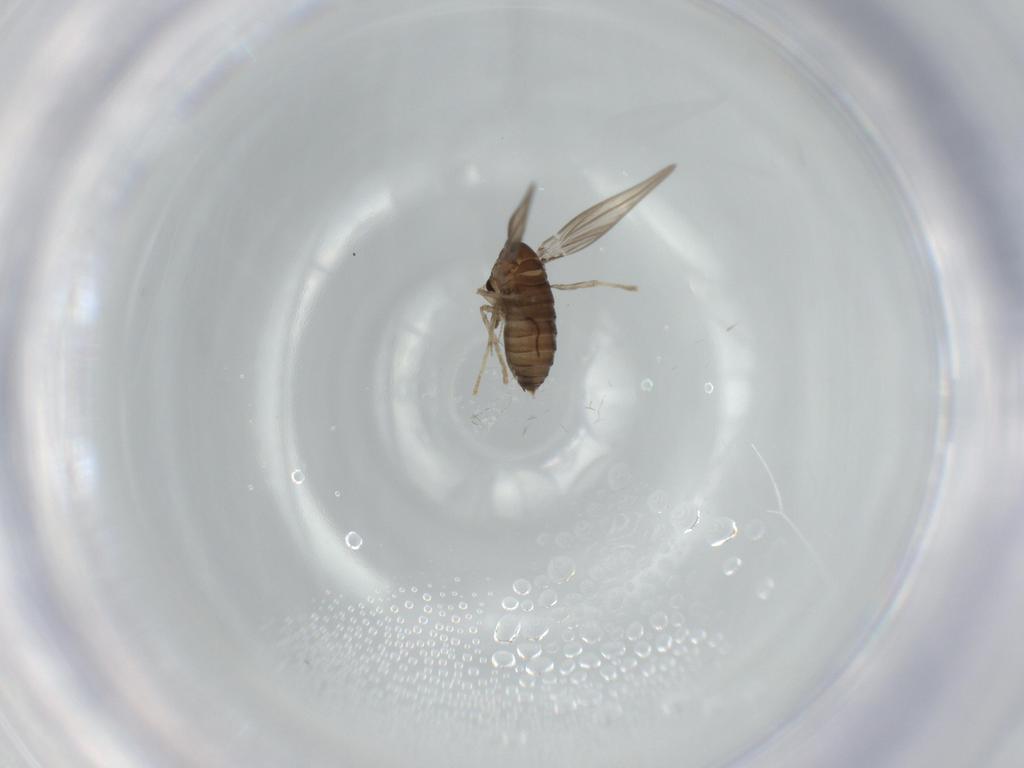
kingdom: Animalia
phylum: Arthropoda
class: Insecta
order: Diptera
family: Psychodidae
